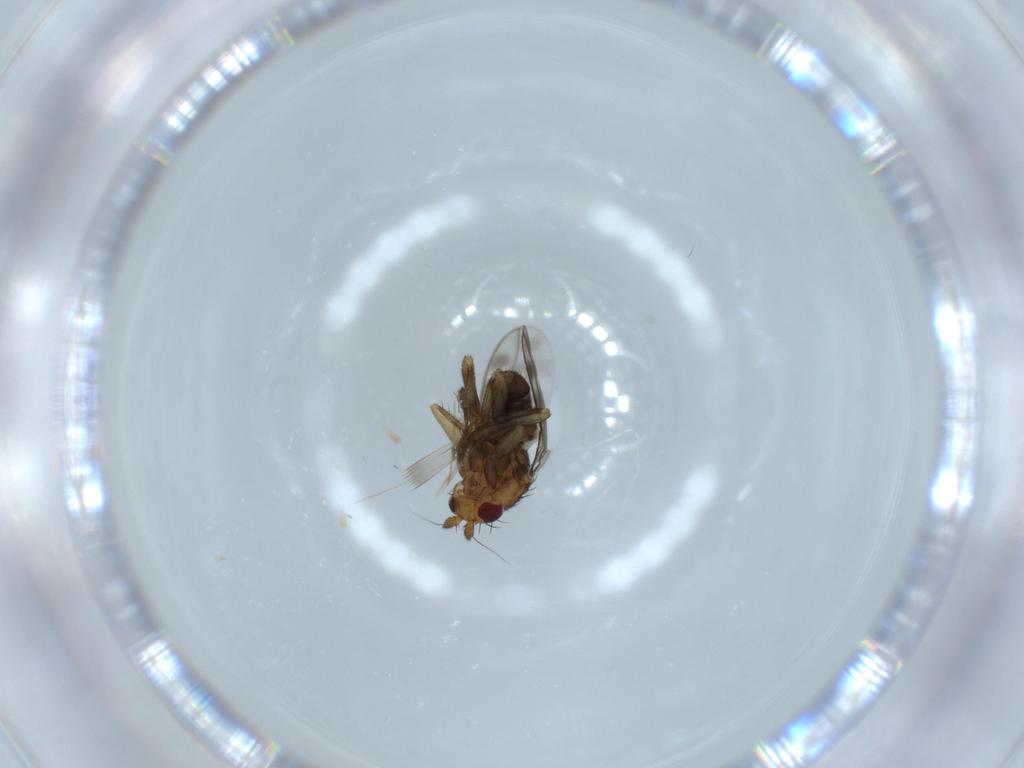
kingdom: Animalia
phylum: Arthropoda
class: Insecta
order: Diptera
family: Sphaeroceridae
